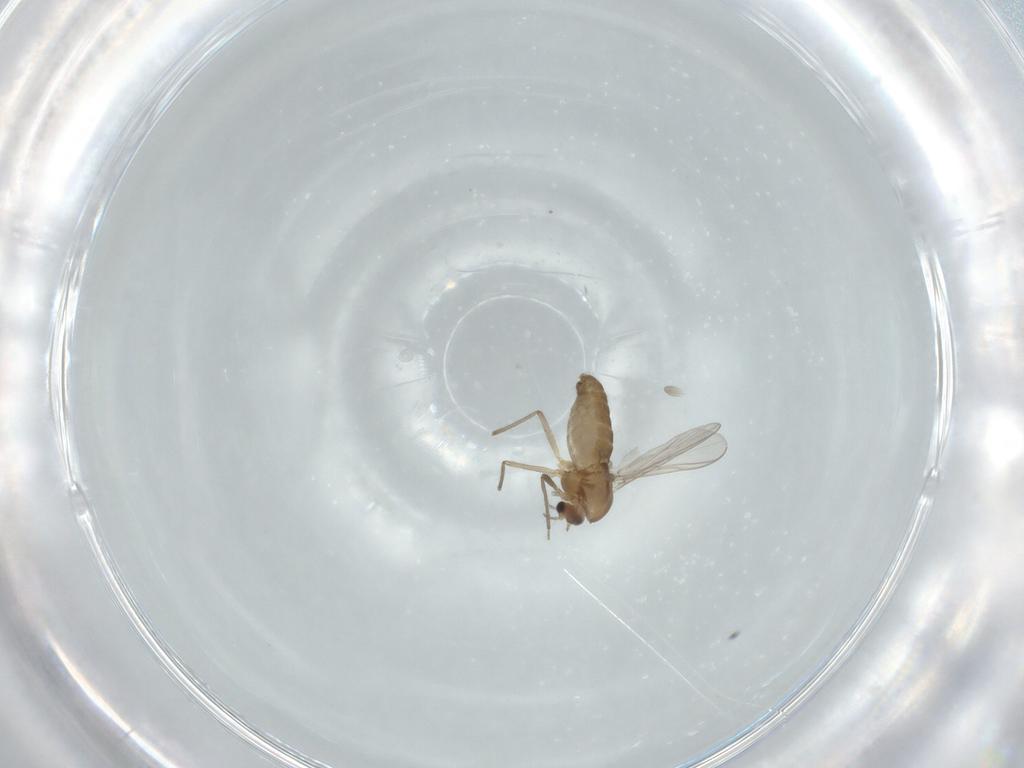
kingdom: Animalia
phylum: Arthropoda
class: Insecta
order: Diptera
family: Chironomidae
